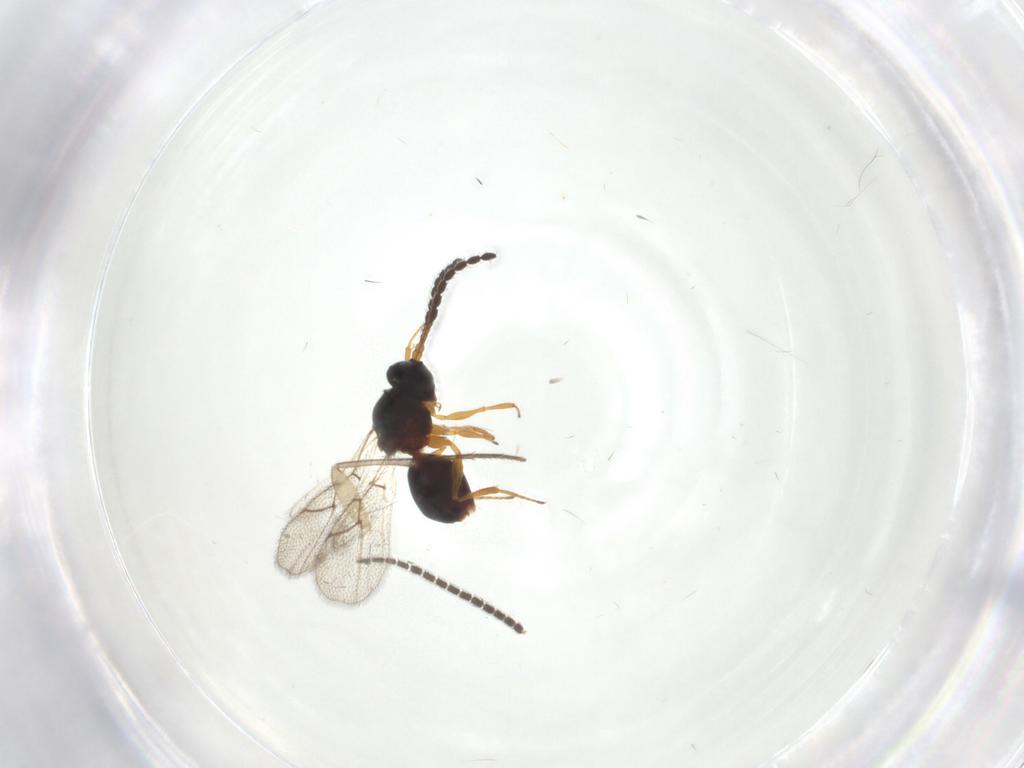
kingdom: Animalia
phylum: Arthropoda
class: Insecta
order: Hymenoptera
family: Figitidae
